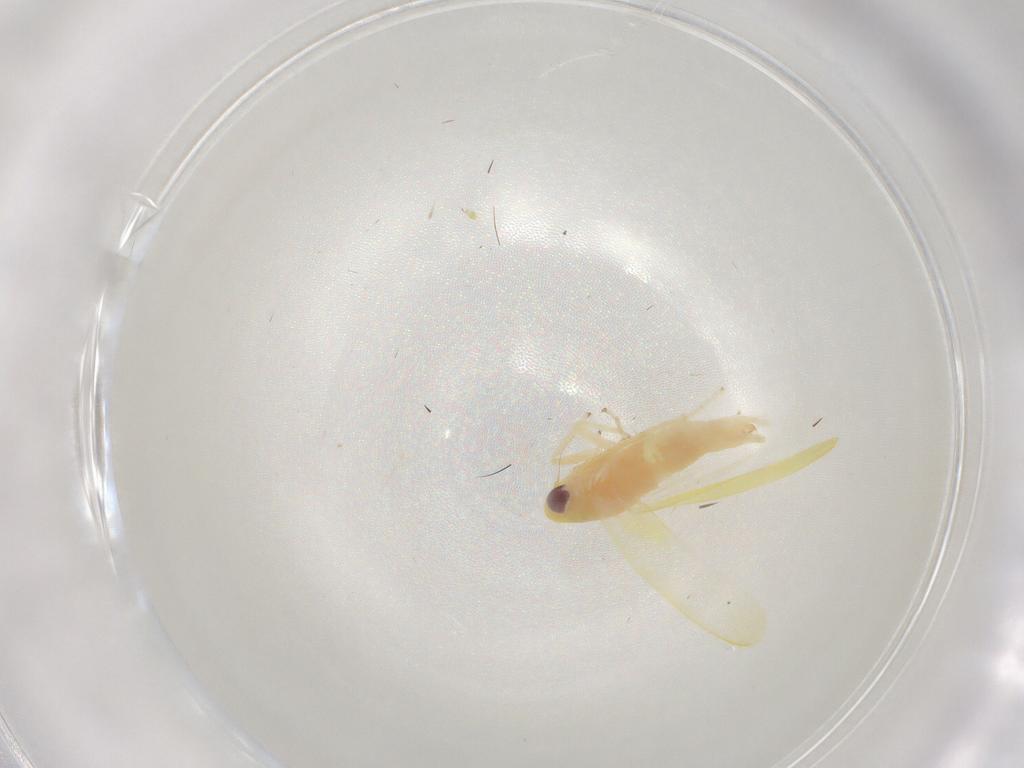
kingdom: Animalia
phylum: Arthropoda
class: Insecta
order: Hemiptera
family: Cicadellidae
